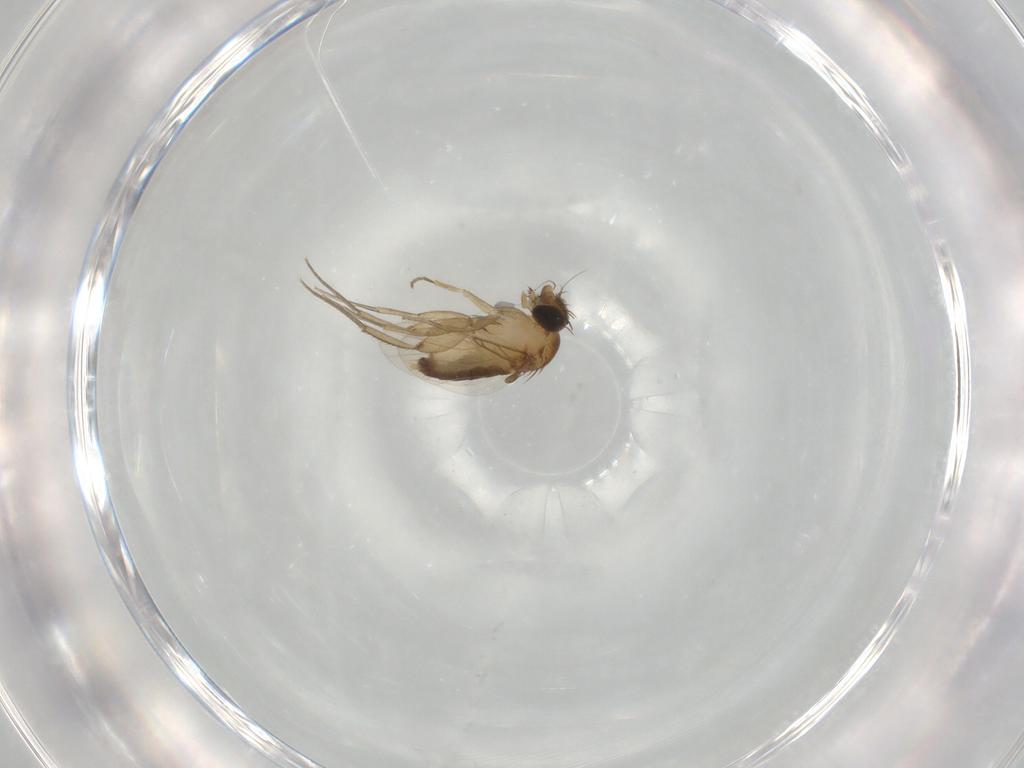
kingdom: Animalia
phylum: Arthropoda
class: Insecta
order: Diptera
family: Phoridae
